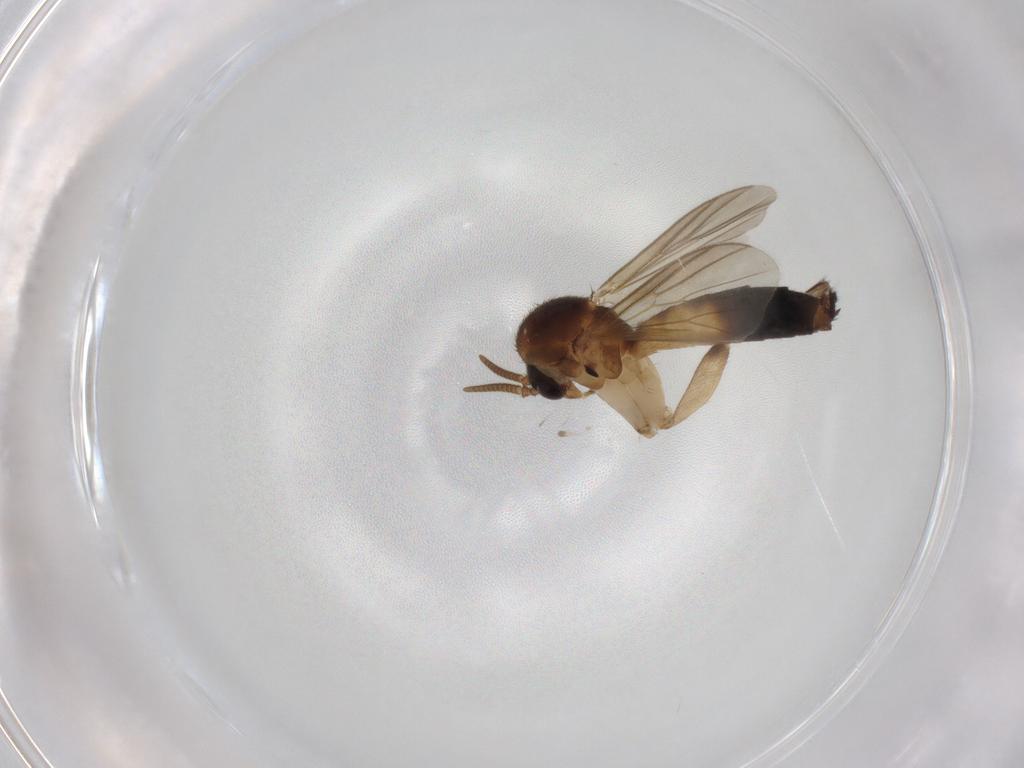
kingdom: Animalia
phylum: Arthropoda
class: Insecta
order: Diptera
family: Mycetophilidae
